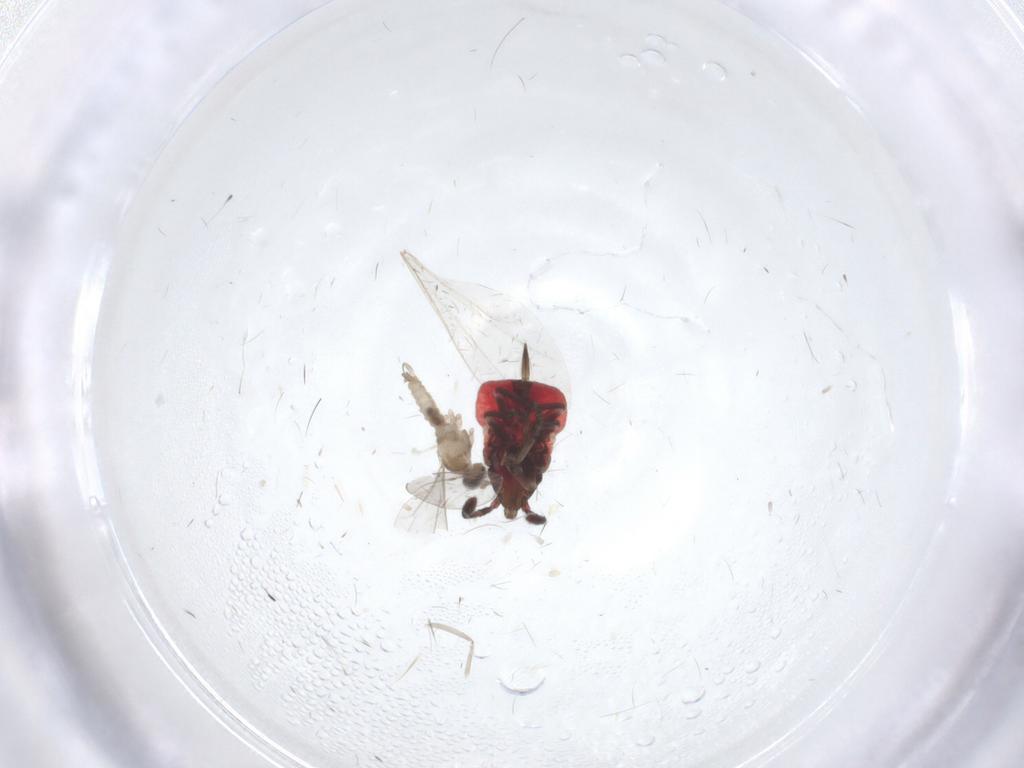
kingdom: Animalia
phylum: Arthropoda
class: Insecta
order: Diptera
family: Cecidomyiidae
